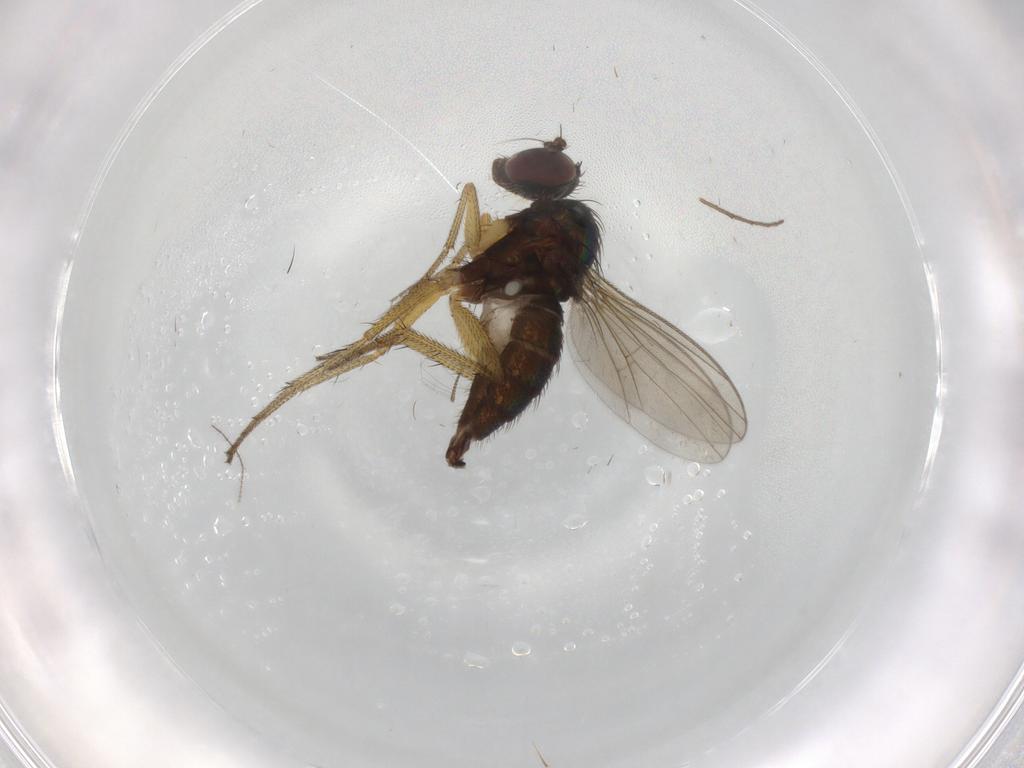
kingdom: Animalia
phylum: Arthropoda
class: Insecta
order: Diptera
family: Dolichopodidae
